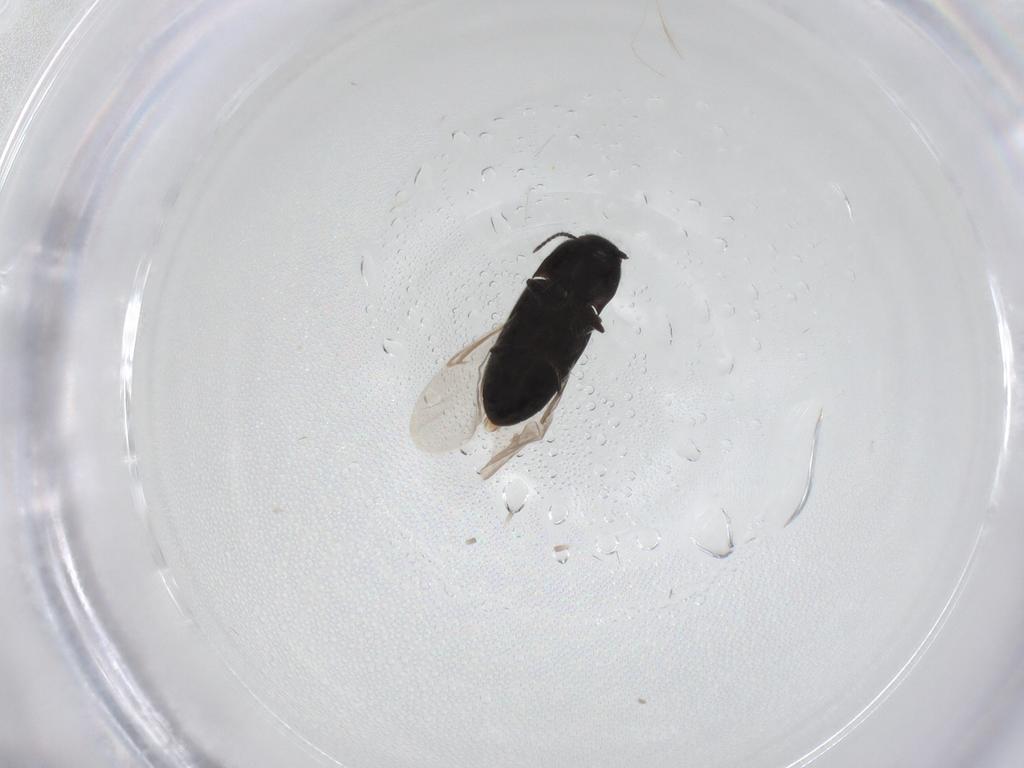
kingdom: Animalia
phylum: Arthropoda
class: Insecta
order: Coleoptera
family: Elateridae
